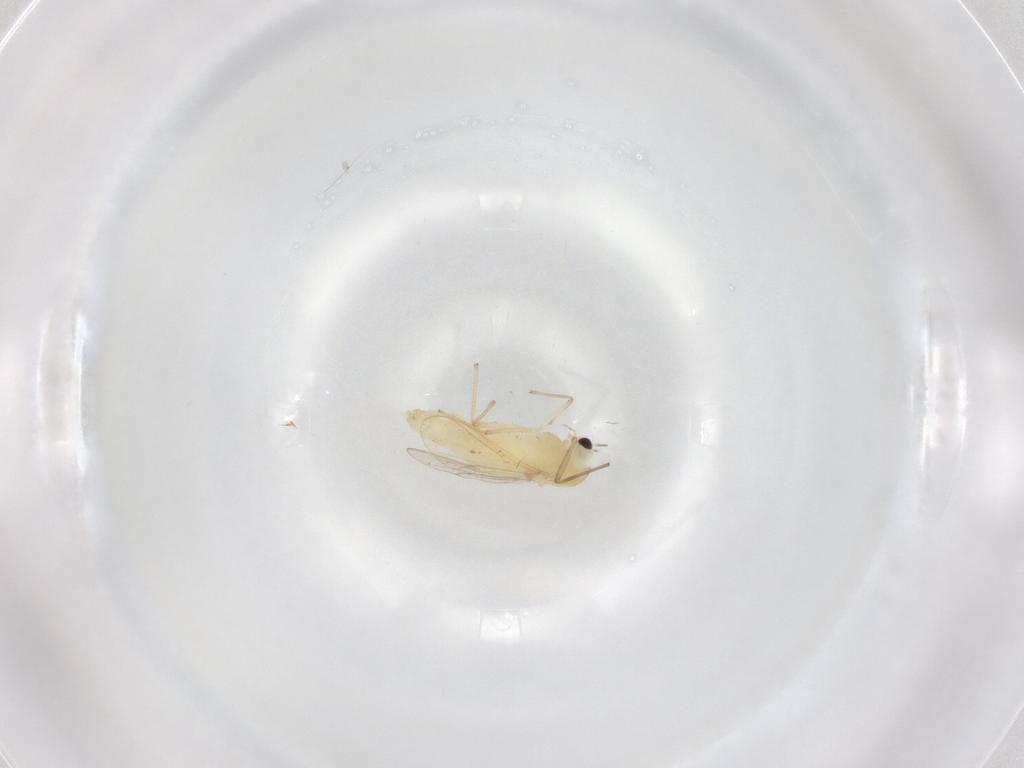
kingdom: Animalia
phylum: Arthropoda
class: Insecta
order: Diptera
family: Chironomidae
